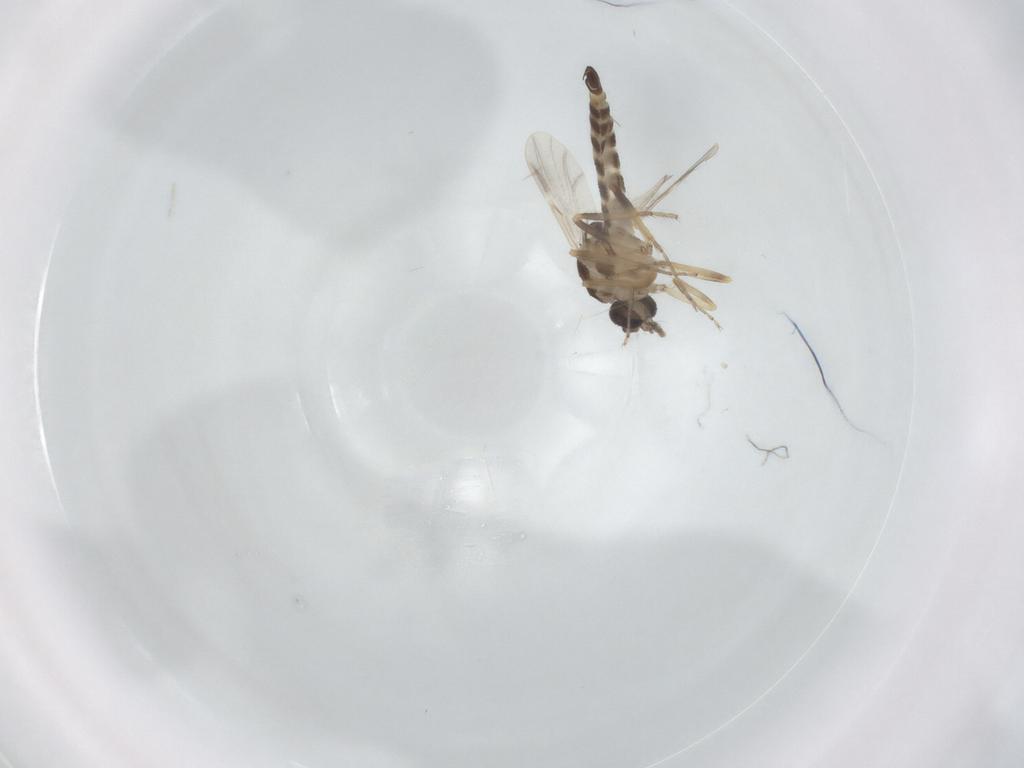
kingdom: Animalia
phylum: Arthropoda
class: Insecta
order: Diptera
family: Ceratopogonidae
